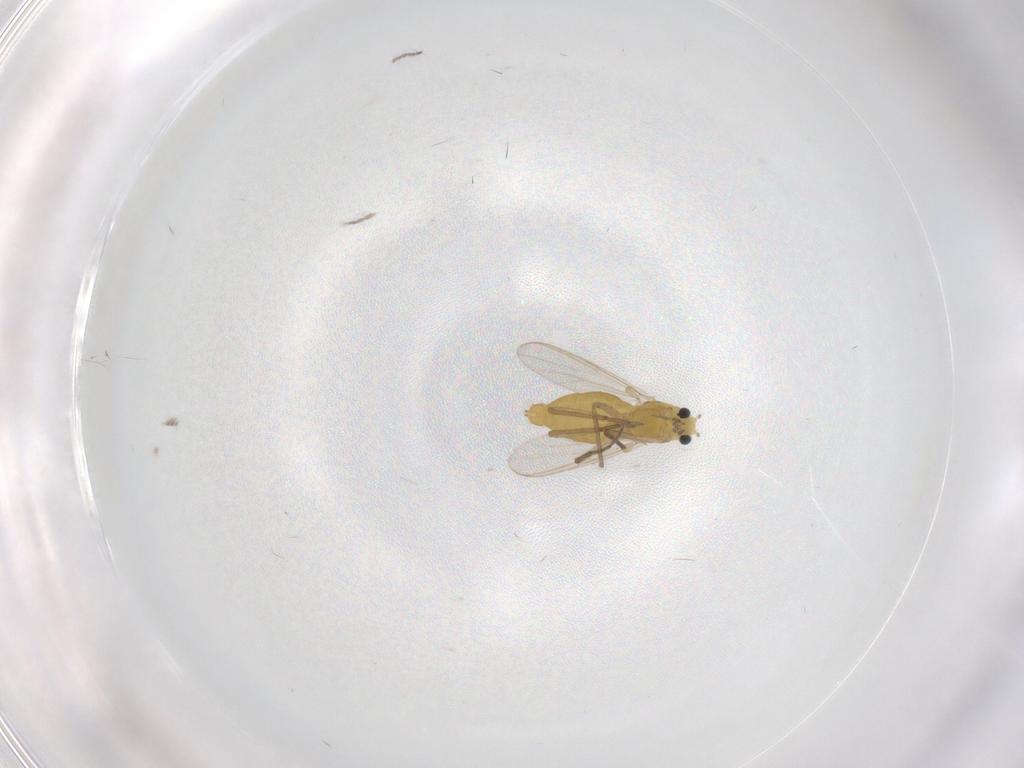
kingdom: Animalia
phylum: Arthropoda
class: Insecta
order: Diptera
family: Chironomidae
